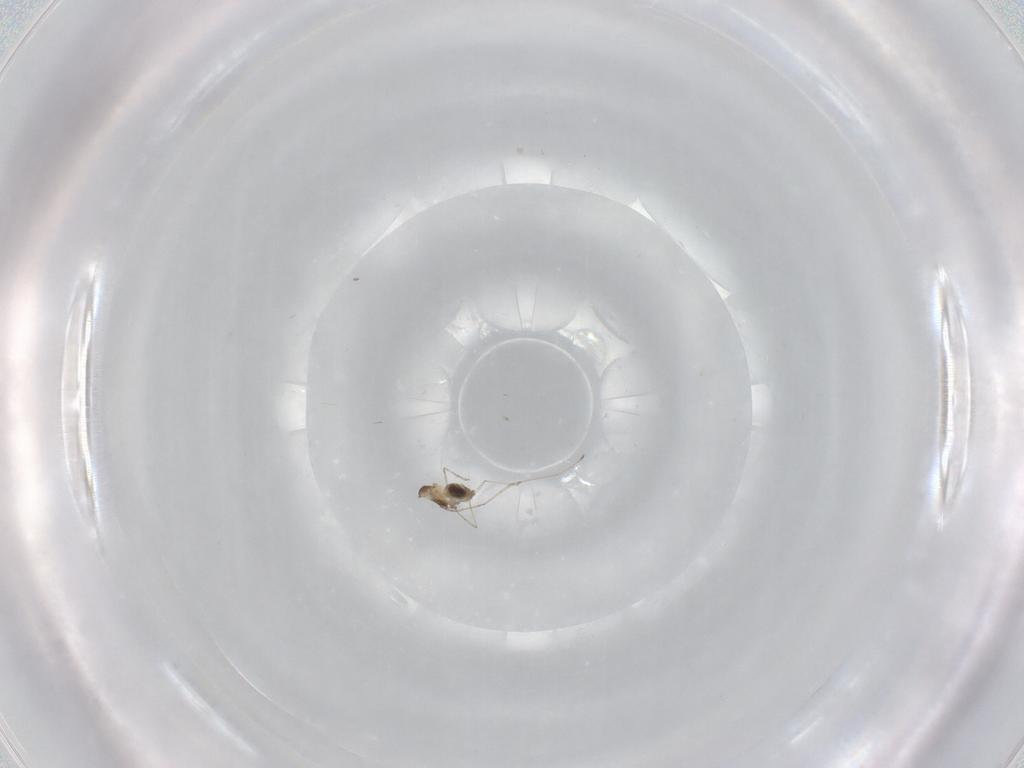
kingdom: Animalia
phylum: Arthropoda
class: Insecta
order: Diptera
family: Cecidomyiidae
